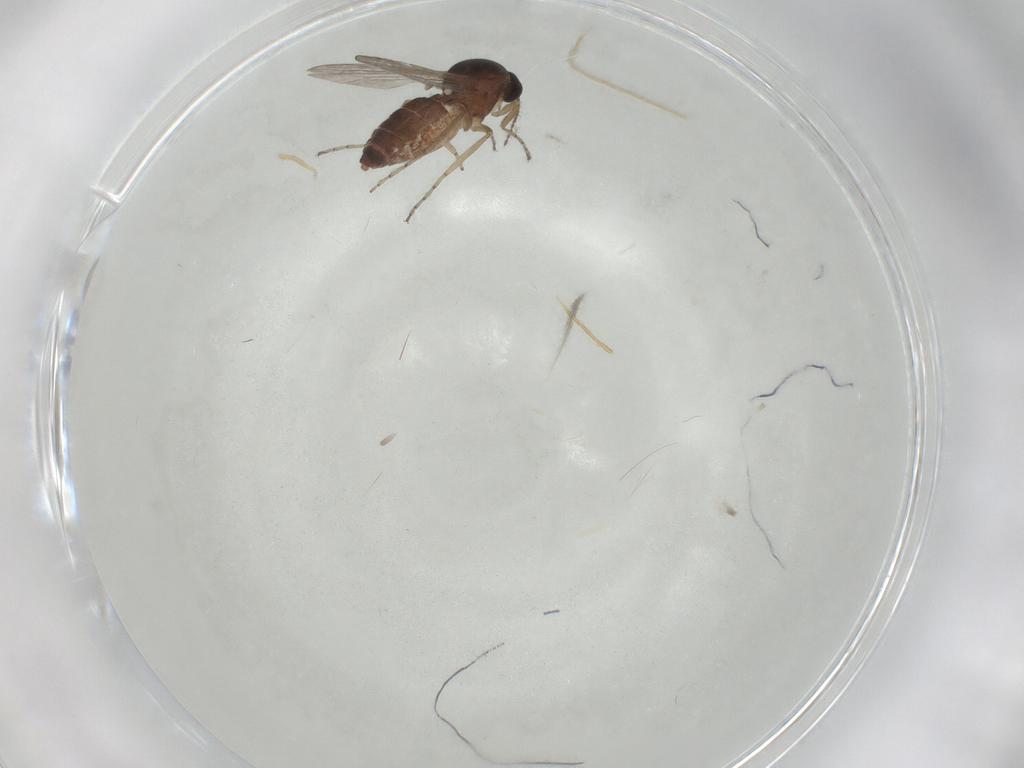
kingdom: Animalia
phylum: Arthropoda
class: Insecta
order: Diptera
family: Ceratopogonidae
